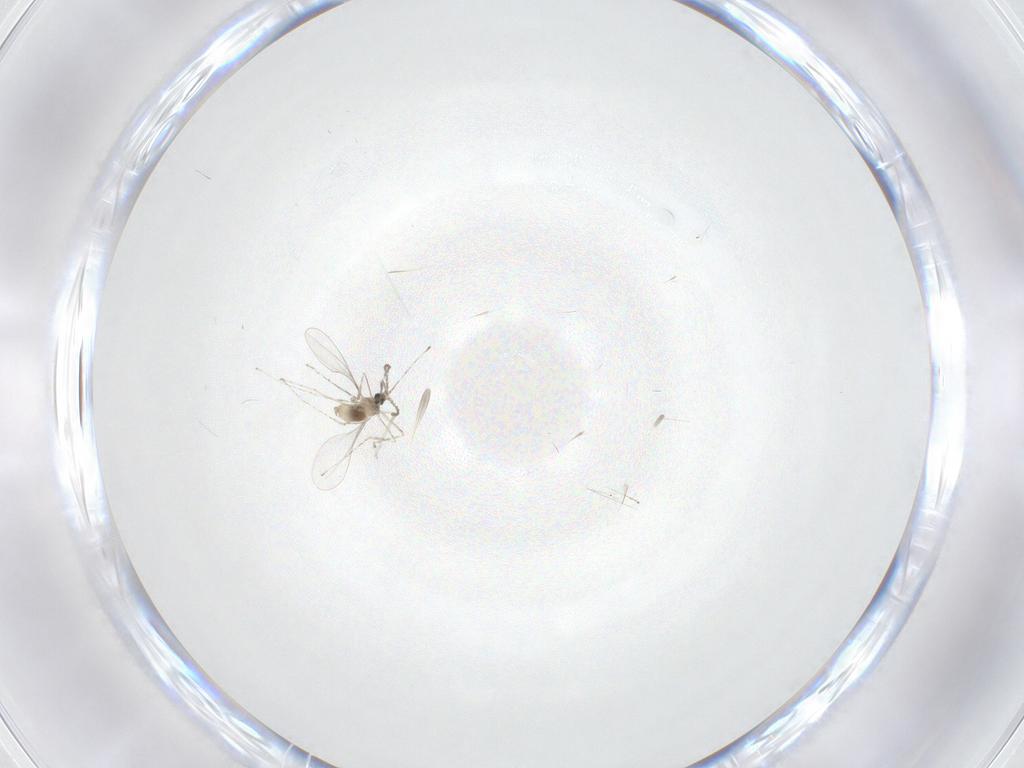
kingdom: Animalia
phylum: Arthropoda
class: Insecta
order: Diptera
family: Cecidomyiidae
